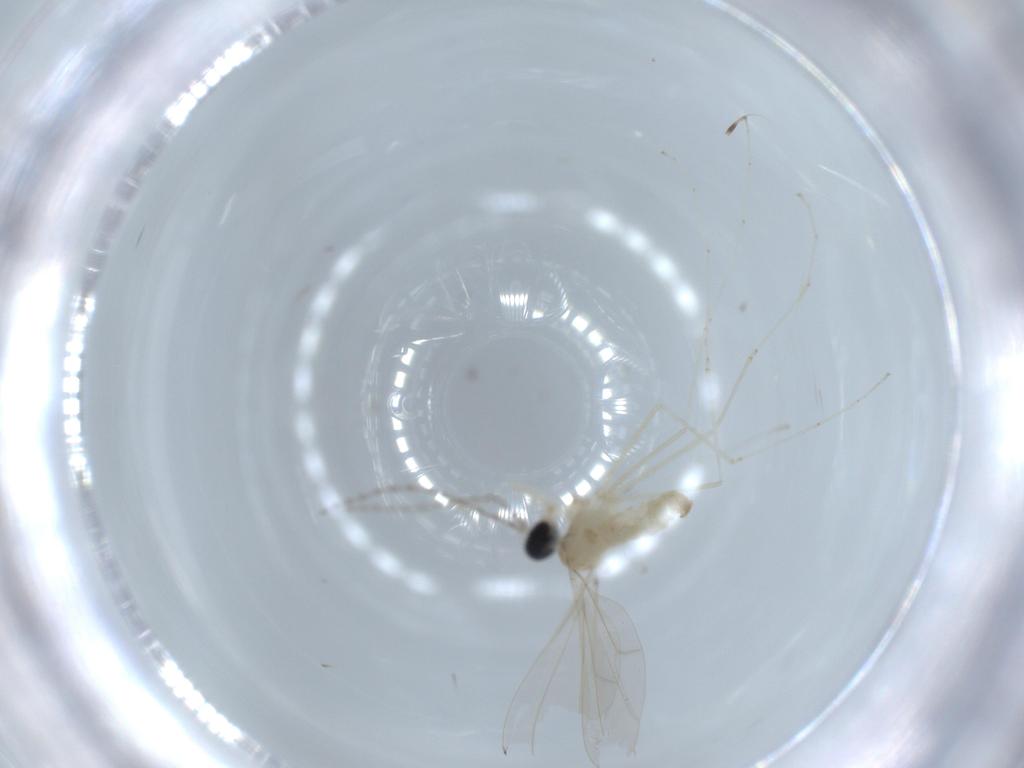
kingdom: Animalia
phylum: Arthropoda
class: Insecta
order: Diptera
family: Cecidomyiidae
